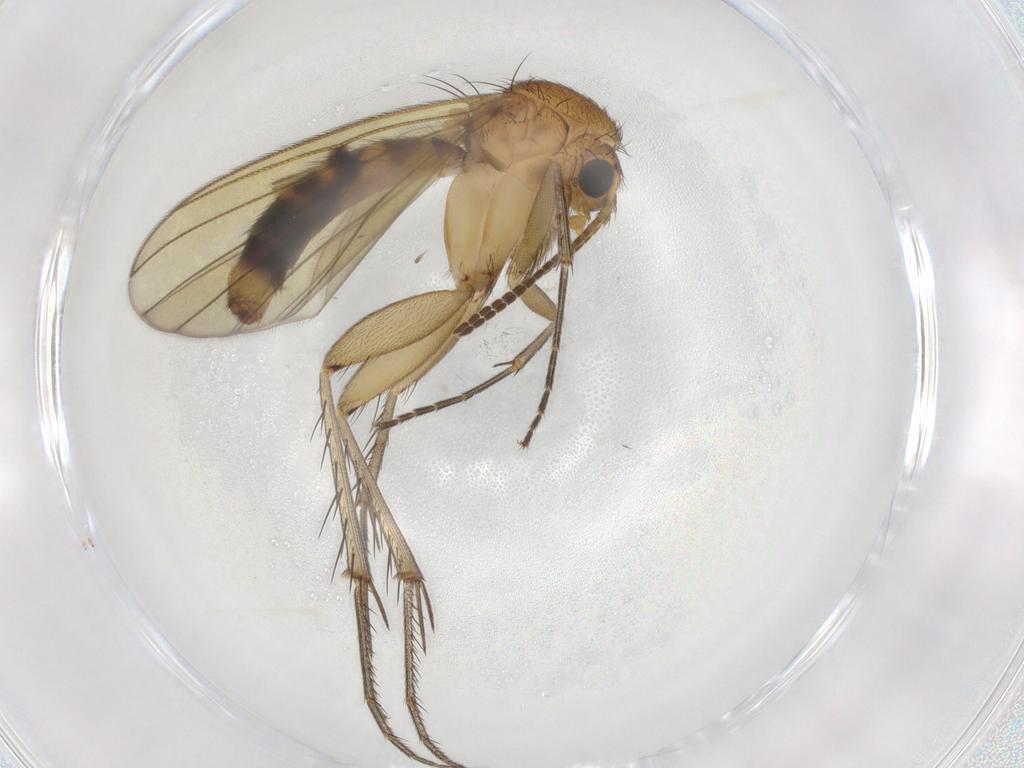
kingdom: Animalia
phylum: Arthropoda
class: Insecta
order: Diptera
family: Mycetophilidae
